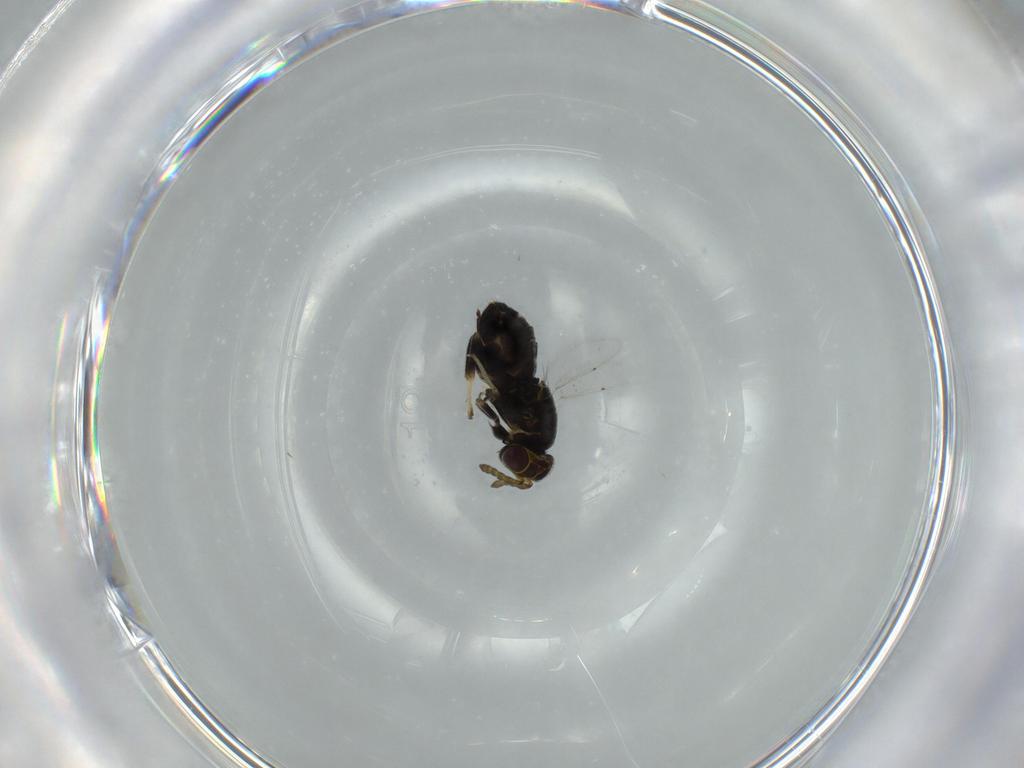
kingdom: Animalia
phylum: Arthropoda
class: Insecta
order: Hymenoptera
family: Aphelinidae
